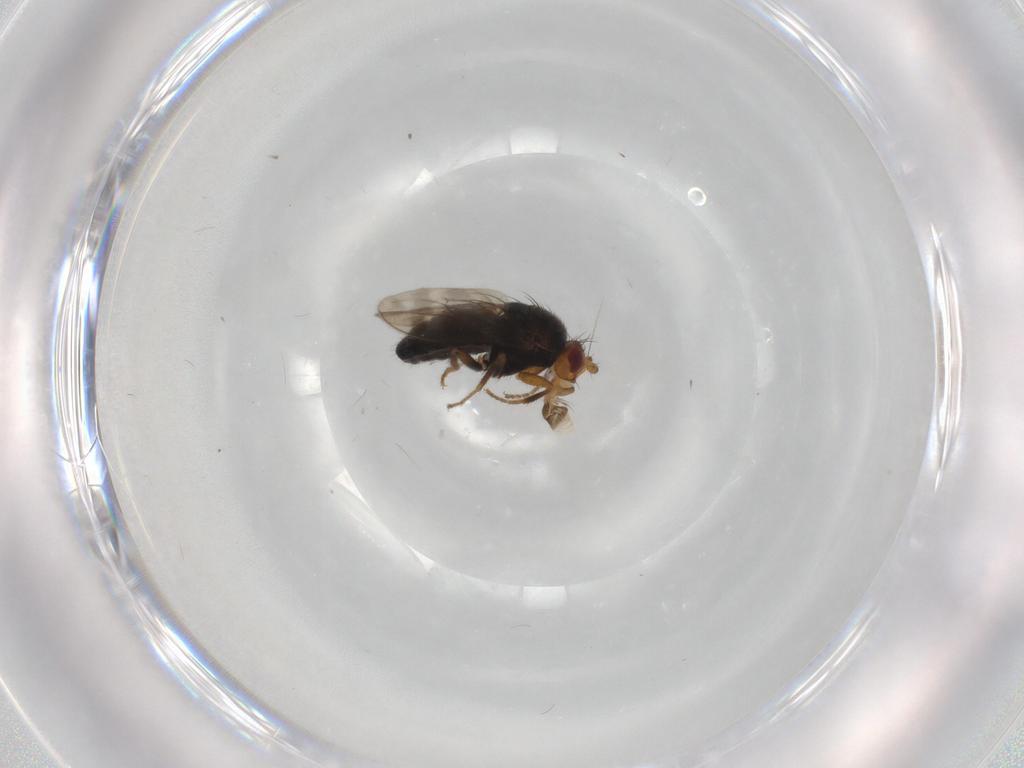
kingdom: Animalia
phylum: Arthropoda
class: Insecta
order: Diptera
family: Sphaeroceridae
